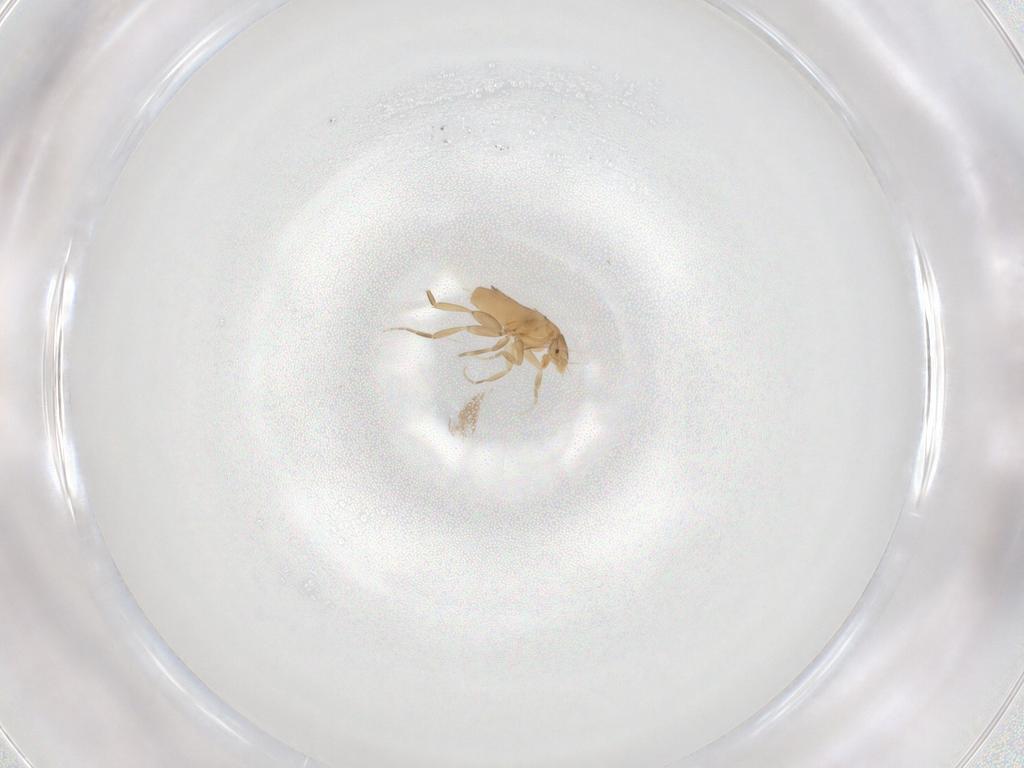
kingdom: Animalia
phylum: Arthropoda
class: Insecta
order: Diptera
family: Phoridae
